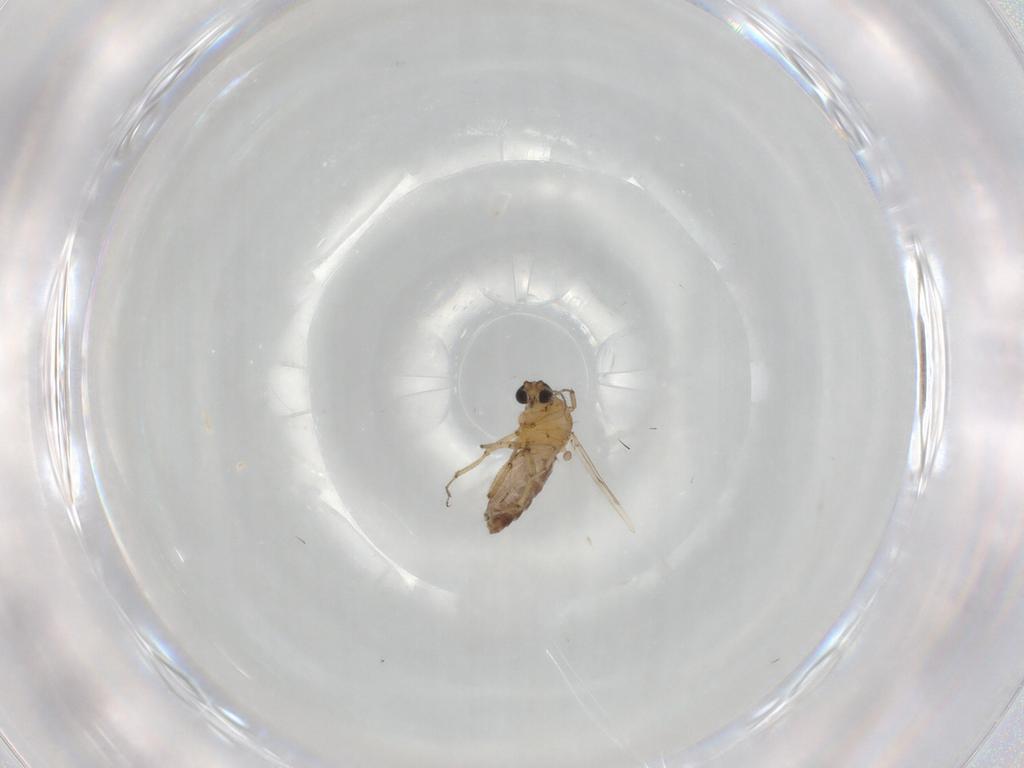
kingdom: Animalia
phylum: Arthropoda
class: Insecta
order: Diptera
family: Ceratopogonidae
